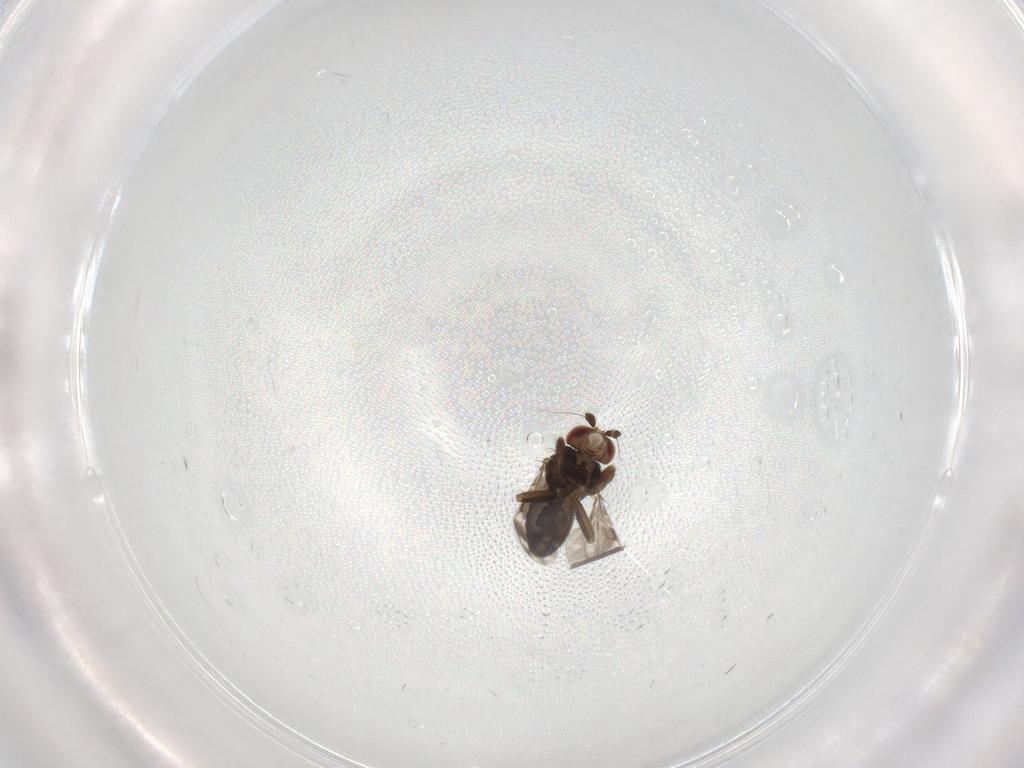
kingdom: Animalia
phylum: Arthropoda
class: Insecta
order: Diptera
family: Sphaeroceridae
